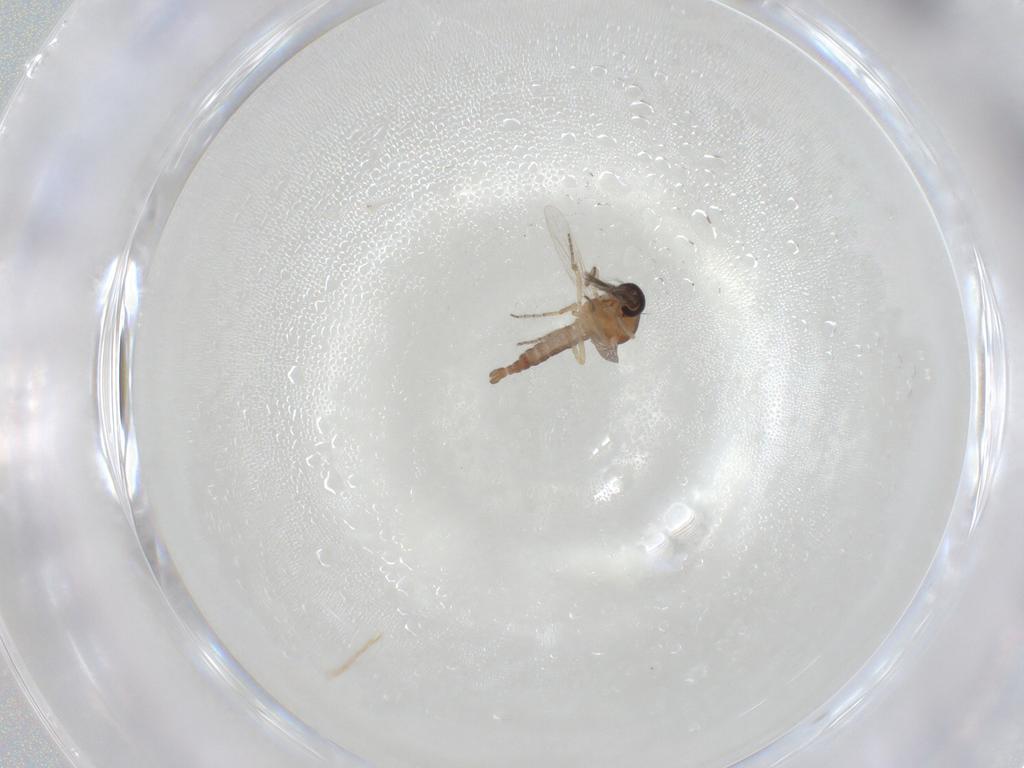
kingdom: Animalia
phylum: Arthropoda
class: Insecta
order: Diptera
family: Ceratopogonidae
